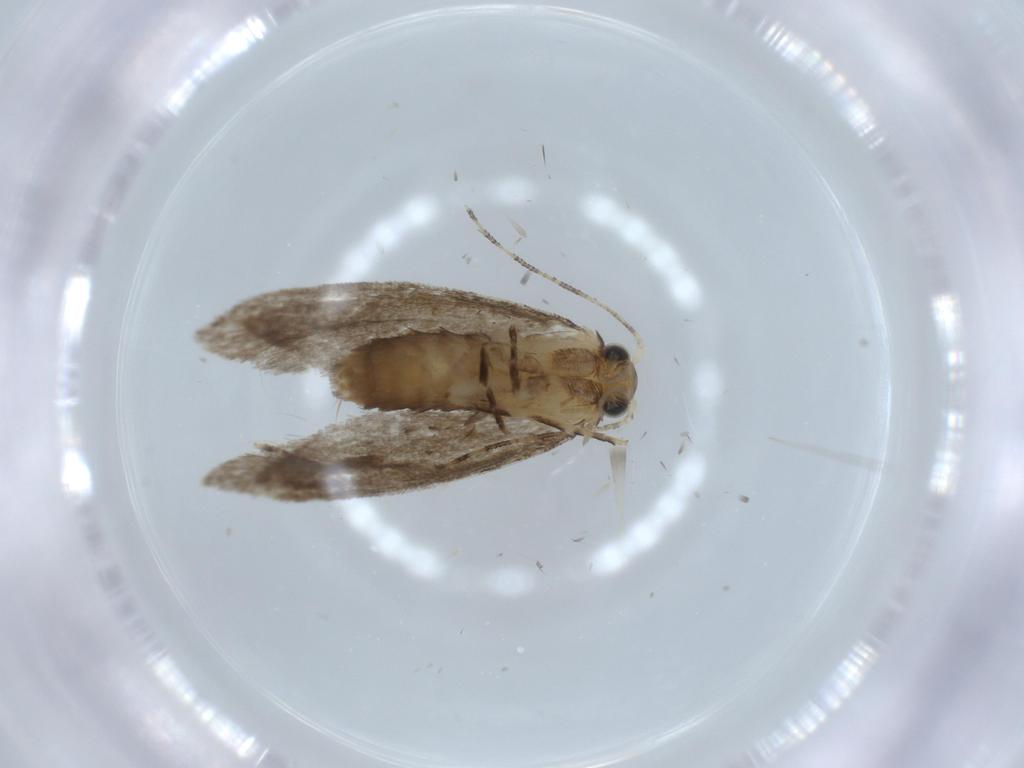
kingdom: Animalia
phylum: Arthropoda
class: Insecta
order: Lepidoptera
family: Tineidae
